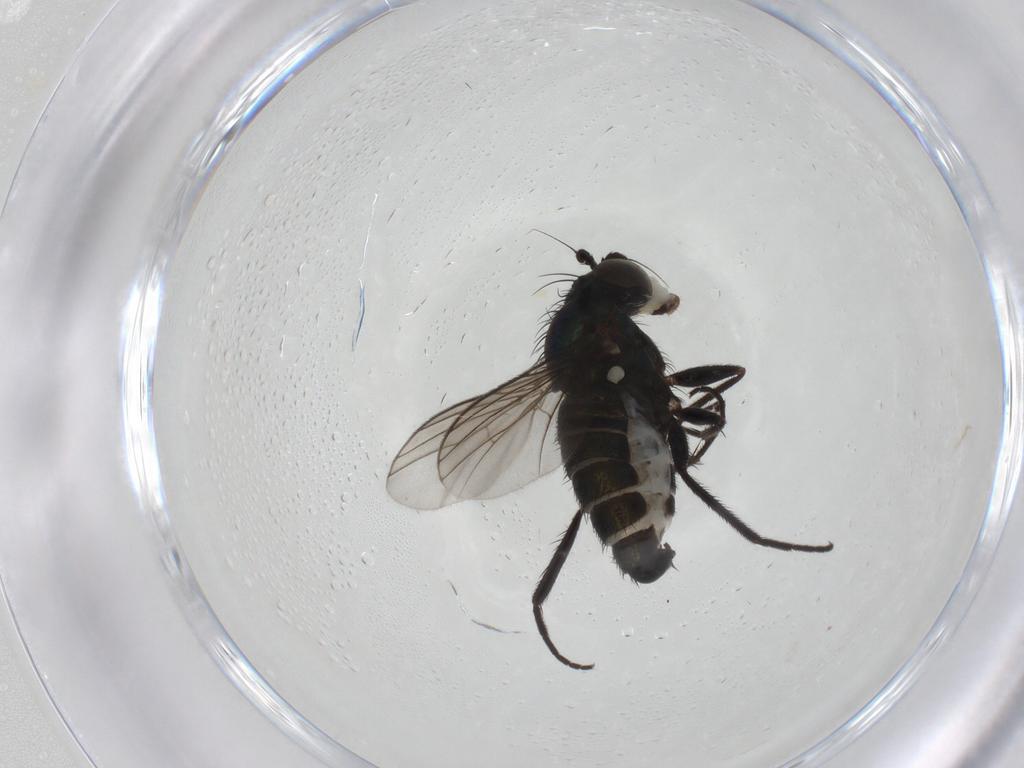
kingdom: Animalia
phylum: Arthropoda
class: Insecta
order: Diptera
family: Dolichopodidae
